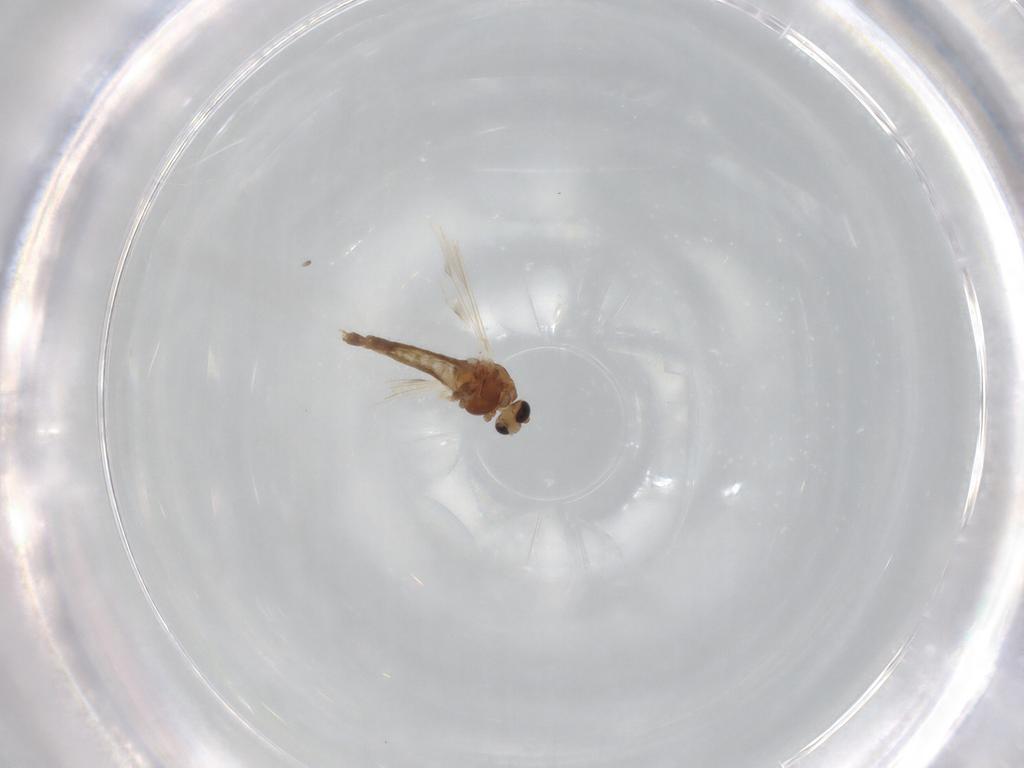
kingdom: Animalia
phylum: Arthropoda
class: Insecta
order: Diptera
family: Chironomidae
